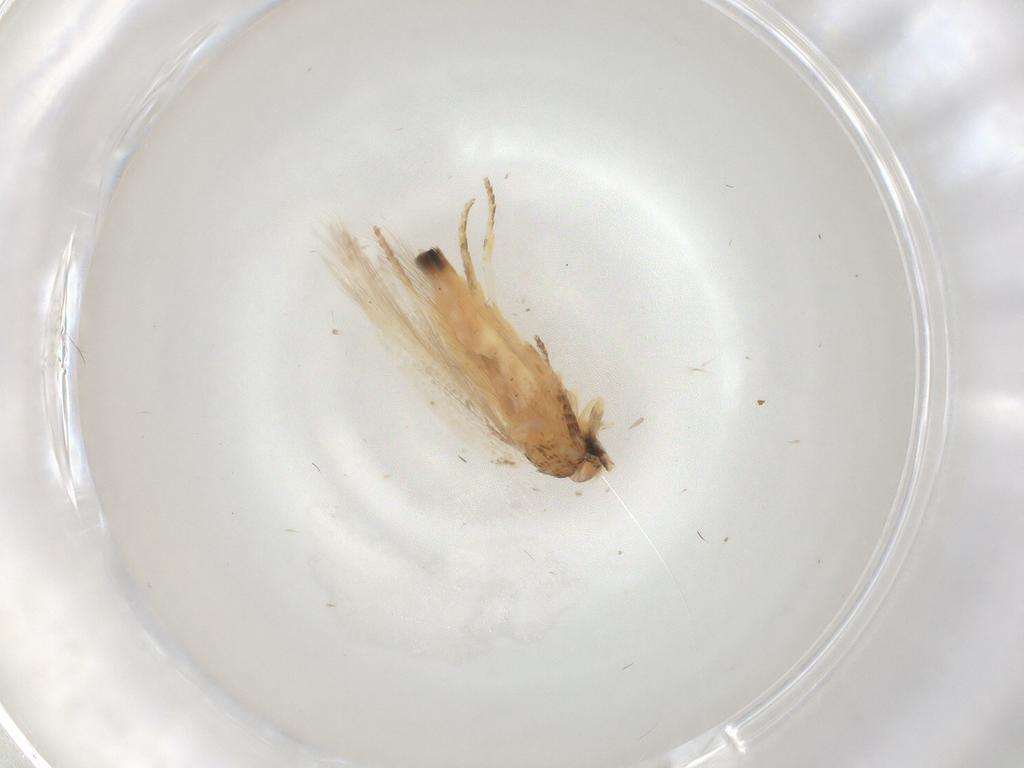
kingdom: Animalia
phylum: Arthropoda
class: Insecta
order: Lepidoptera
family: Gelechiidae
